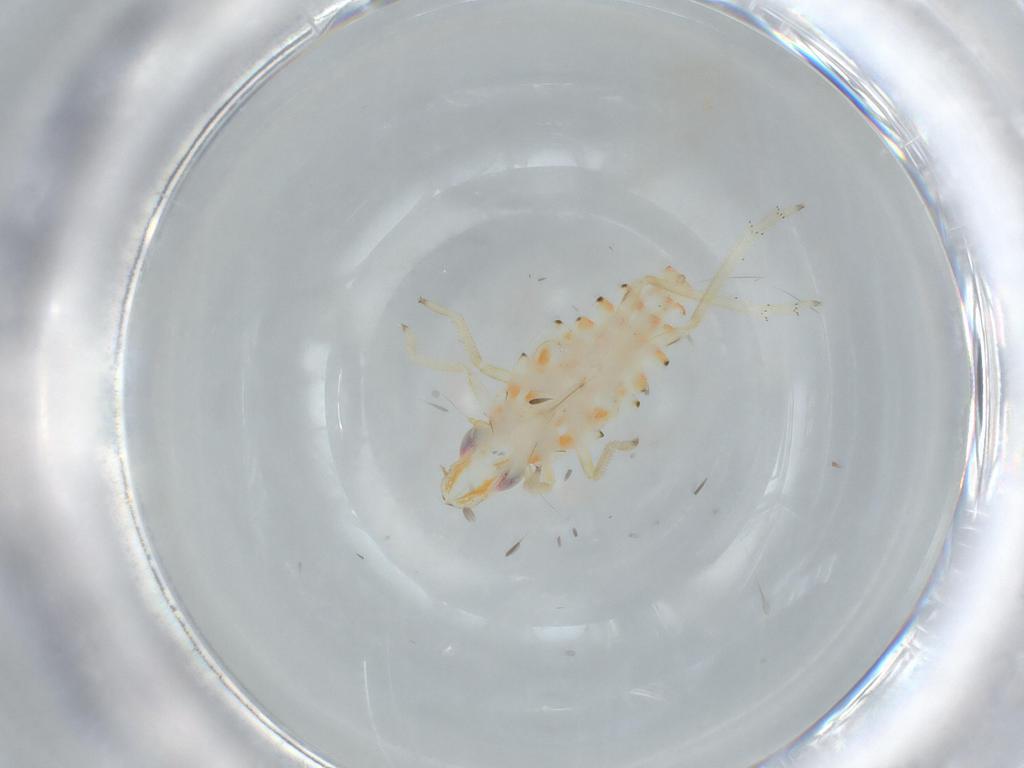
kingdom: Animalia
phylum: Arthropoda
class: Insecta
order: Hemiptera
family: Tropiduchidae
